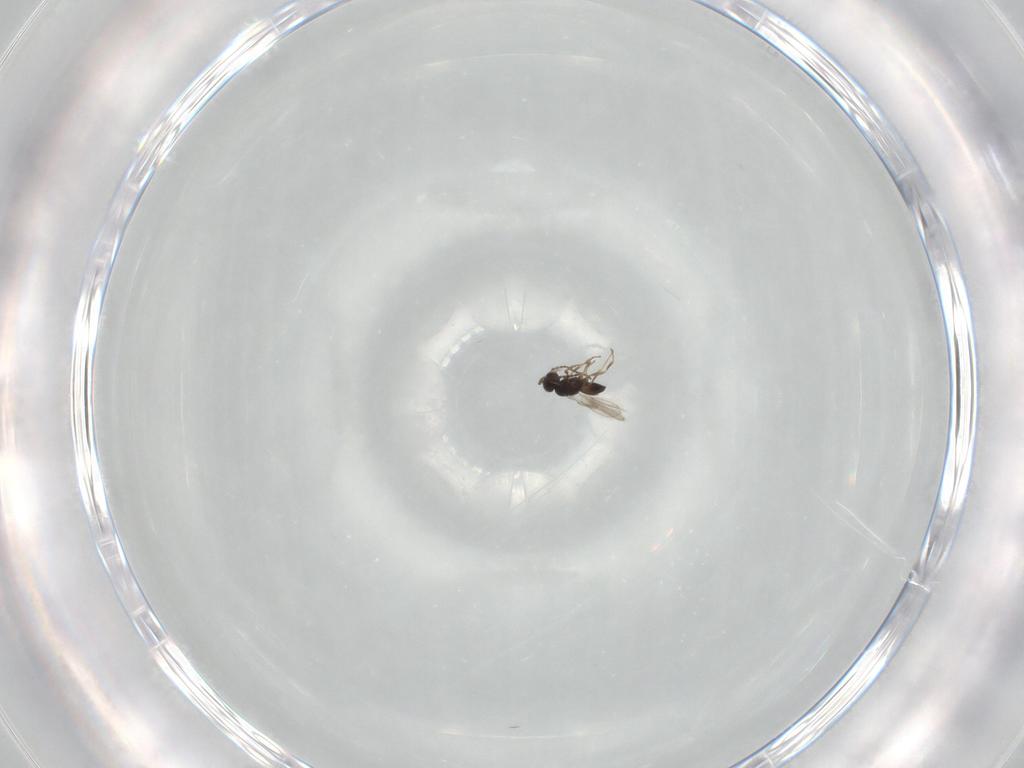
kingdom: Animalia
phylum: Arthropoda
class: Insecta
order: Hymenoptera
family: Scelionidae
